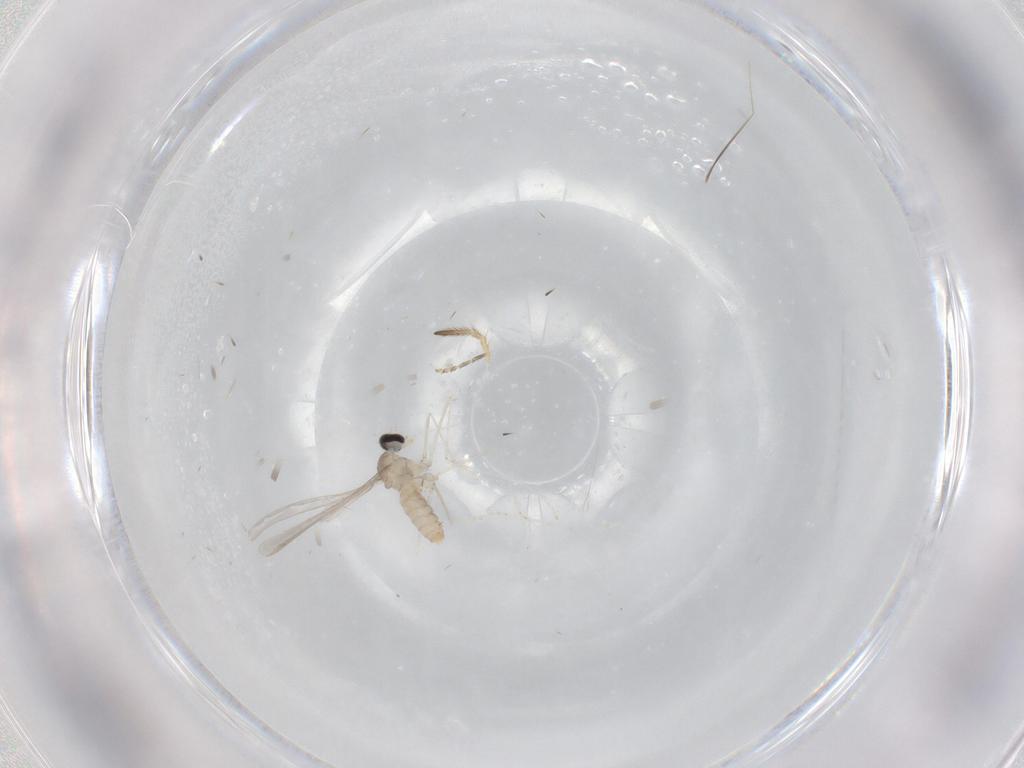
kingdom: Animalia
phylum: Arthropoda
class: Insecta
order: Diptera
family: Cecidomyiidae
